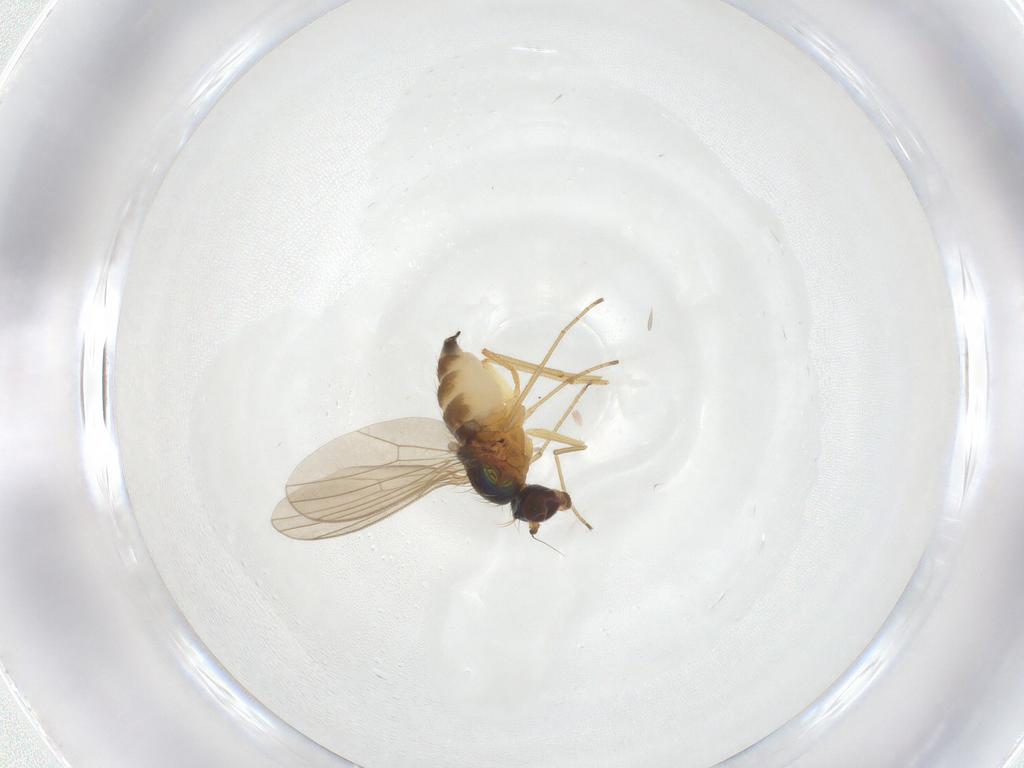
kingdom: Animalia
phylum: Arthropoda
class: Insecta
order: Diptera
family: Dolichopodidae
